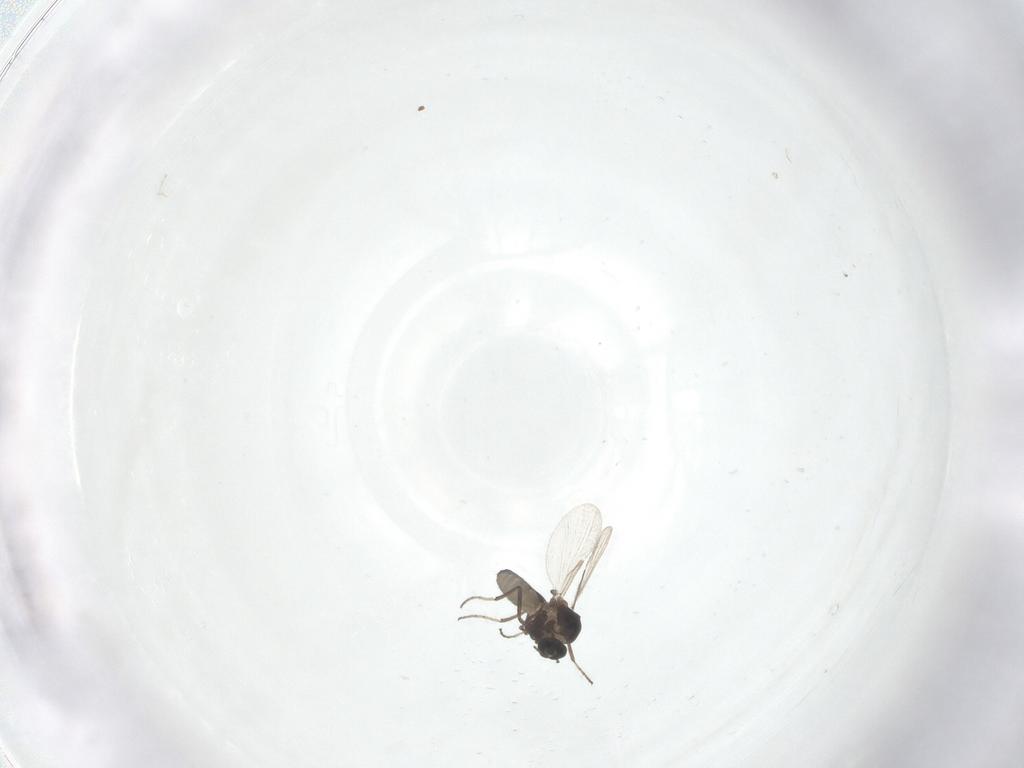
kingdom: Animalia
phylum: Arthropoda
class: Insecta
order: Diptera
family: Ceratopogonidae
